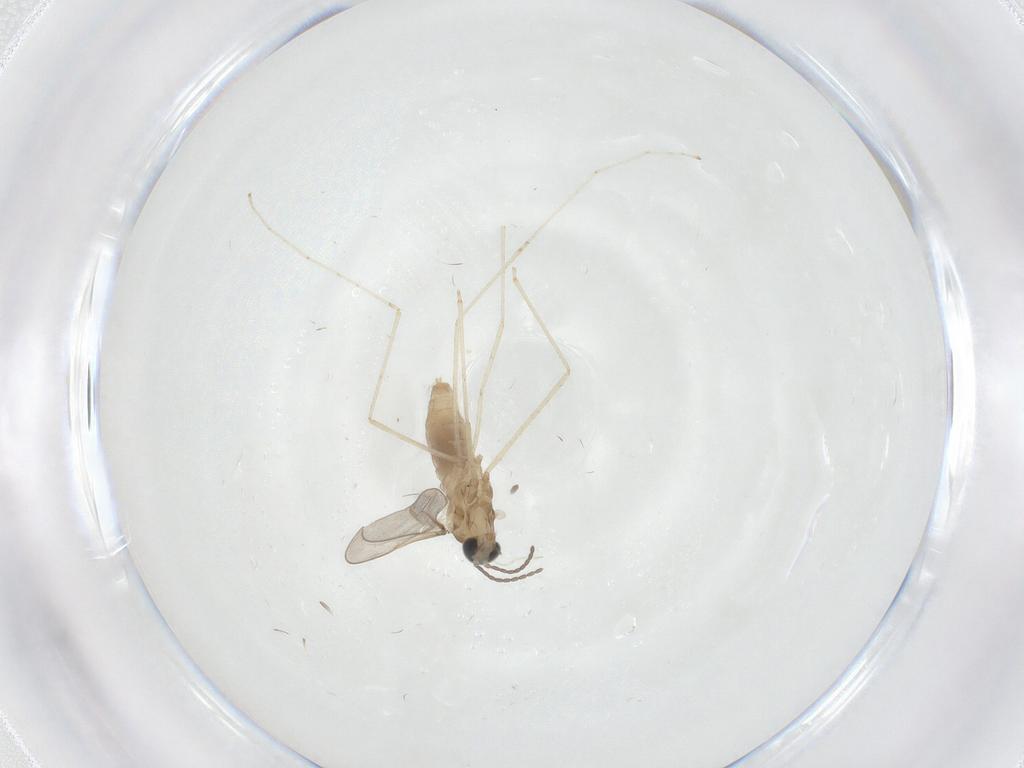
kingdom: Animalia
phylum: Arthropoda
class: Insecta
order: Diptera
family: Cecidomyiidae
